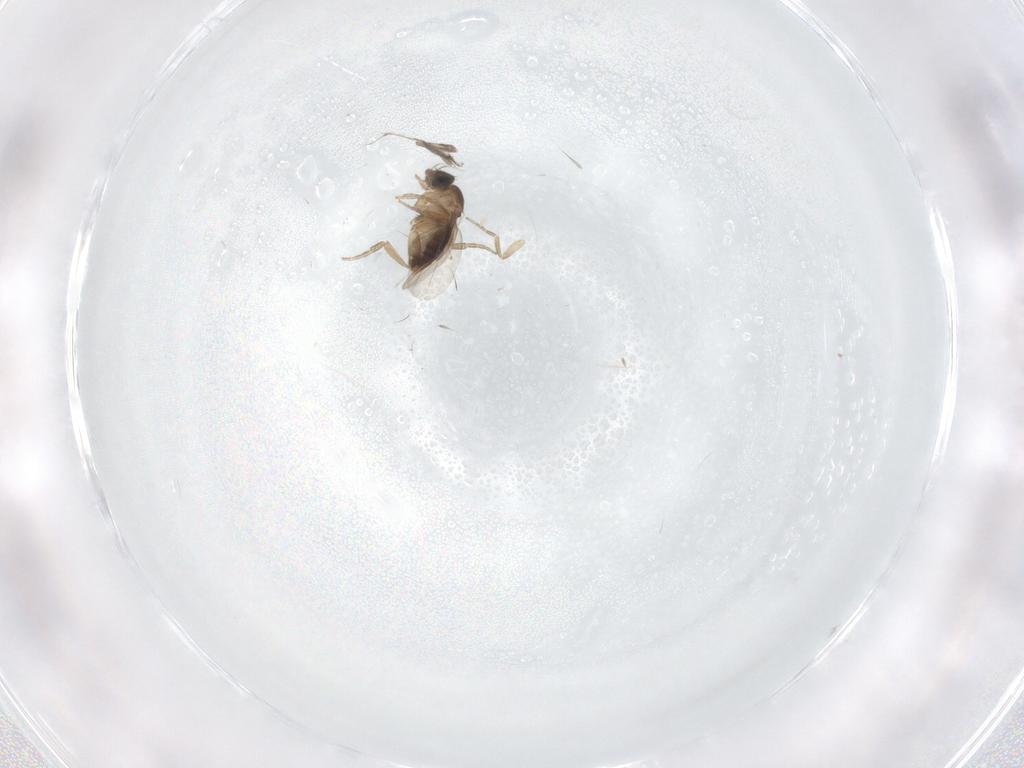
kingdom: Animalia
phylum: Arthropoda
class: Insecta
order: Diptera
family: Phoridae
